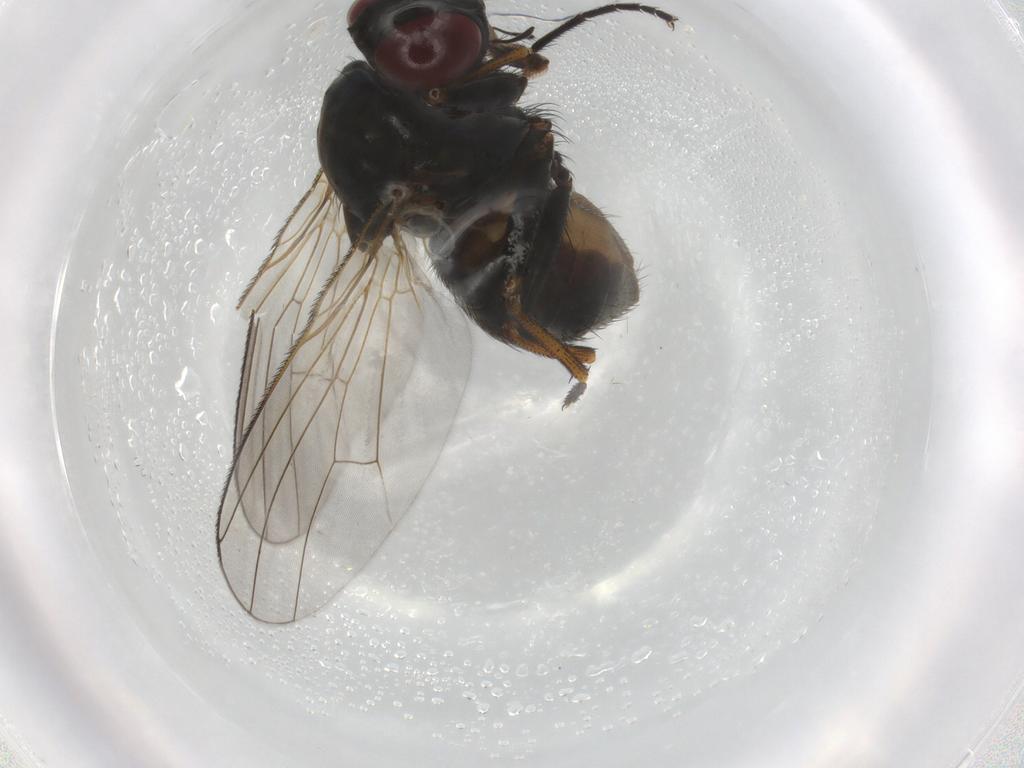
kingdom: Animalia
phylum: Arthropoda
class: Insecta
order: Diptera
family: Muscidae
